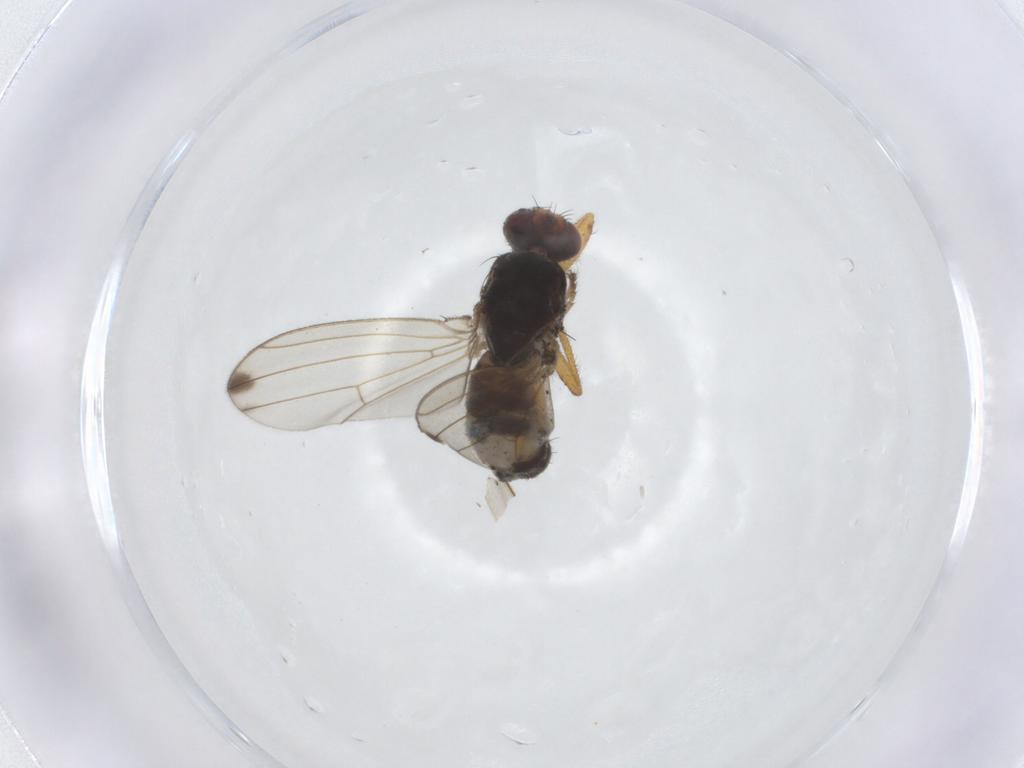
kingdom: Animalia
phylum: Arthropoda
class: Insecta
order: Diptera
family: Drosophilidae
